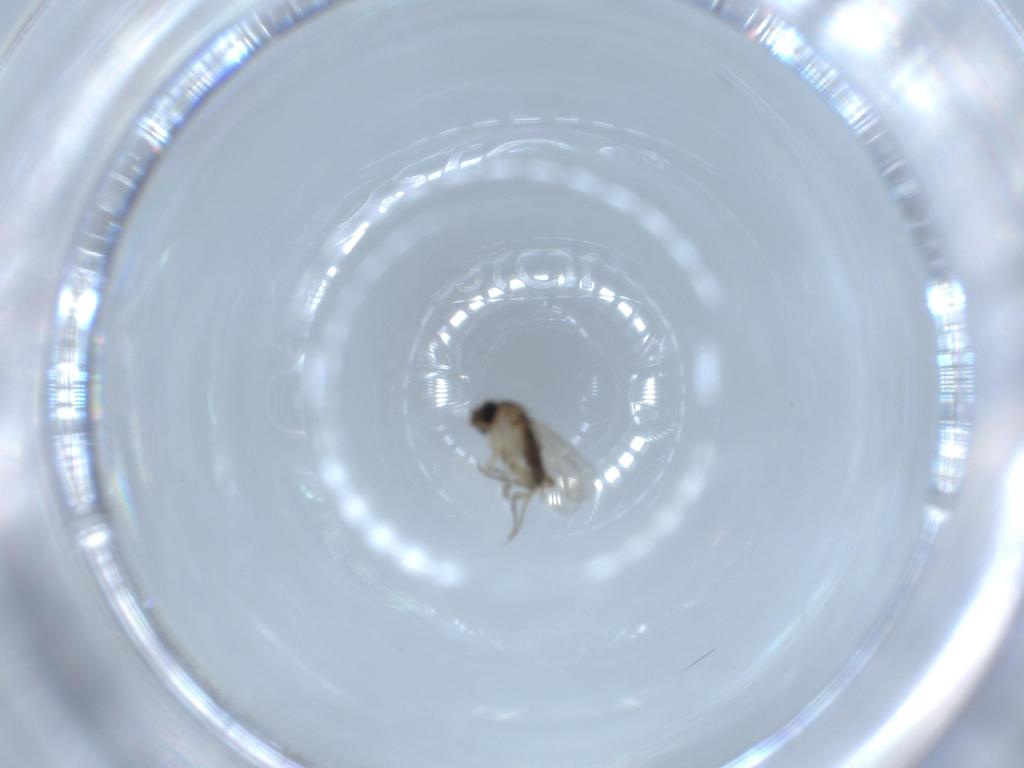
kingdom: Animalia
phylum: Arthropoda
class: Insecta
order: Diptera
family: Phoridae
